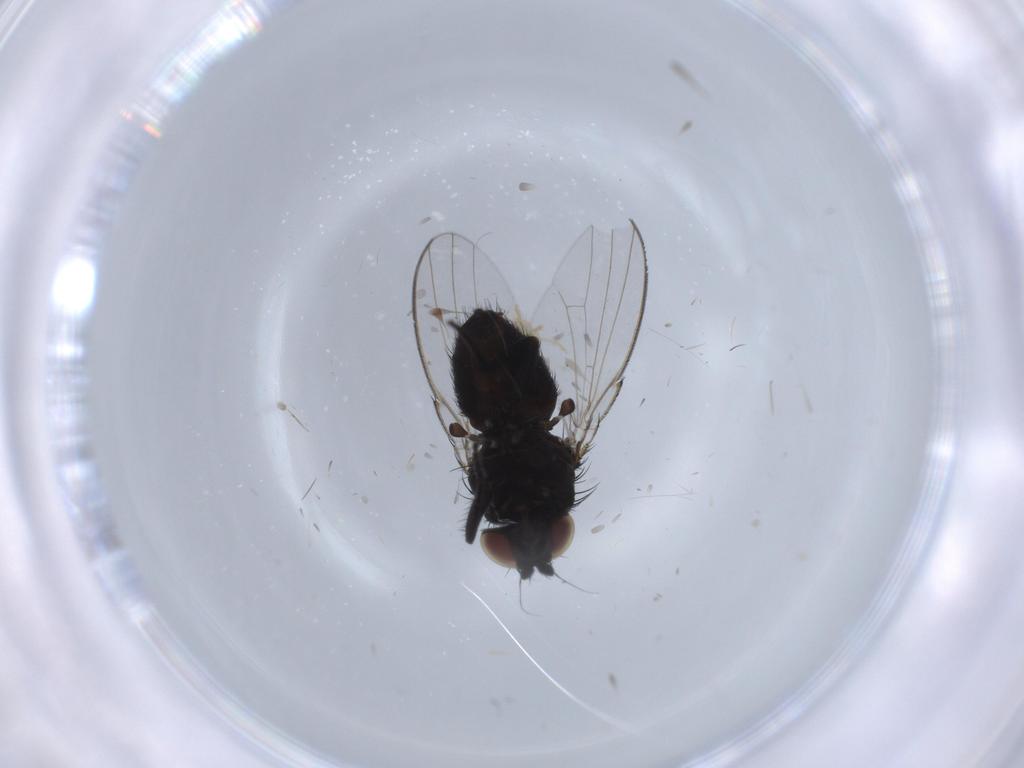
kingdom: Animalia
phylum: Arthropoda
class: Insecta
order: Diptera
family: Milichiidae
